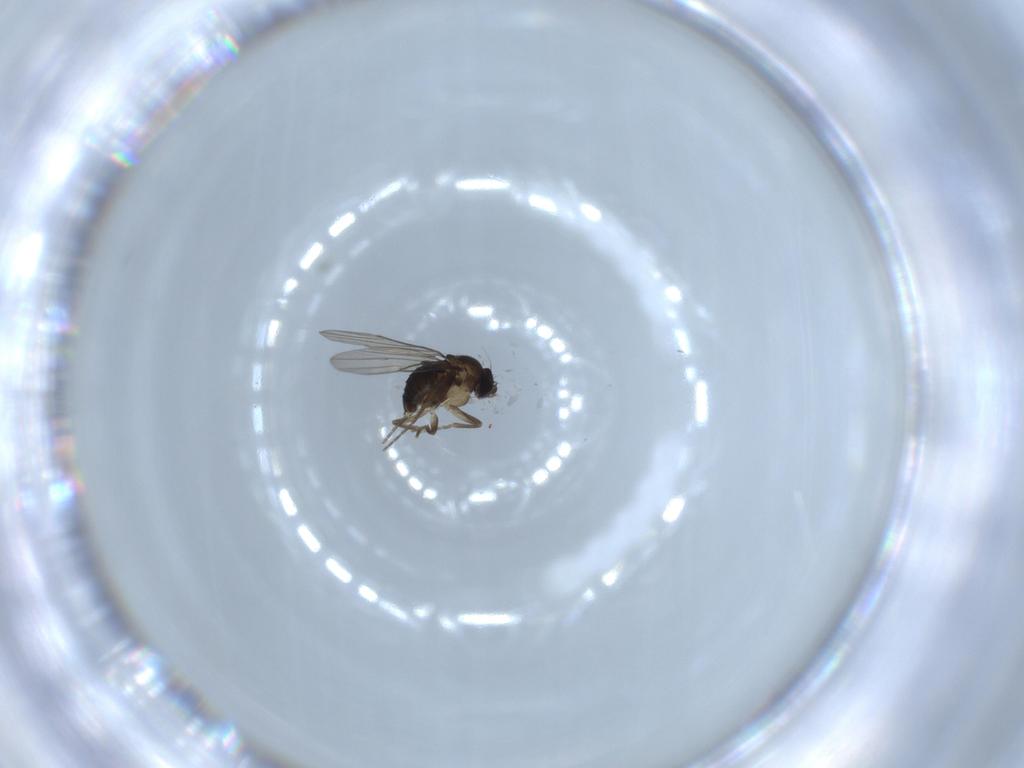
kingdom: Animalia
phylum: Arthropoda
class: Insecta
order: Diptera
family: Phoridae
